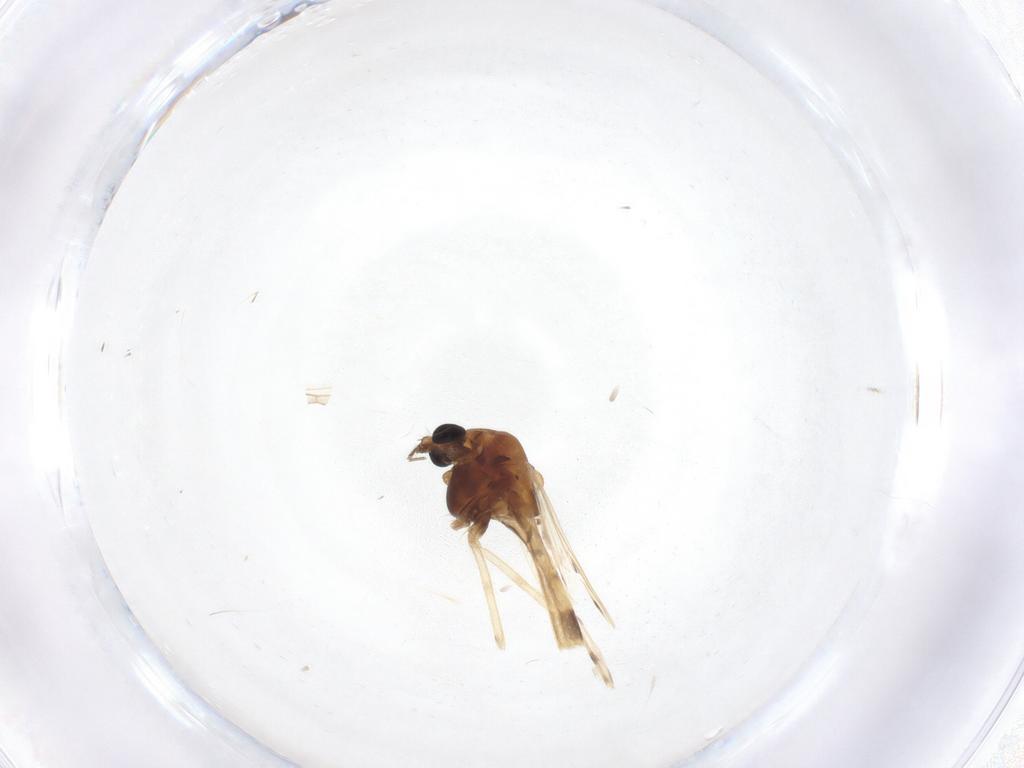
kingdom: Animalia
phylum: Arthropoda
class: Insecta
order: Diptera
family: Chironomidae
